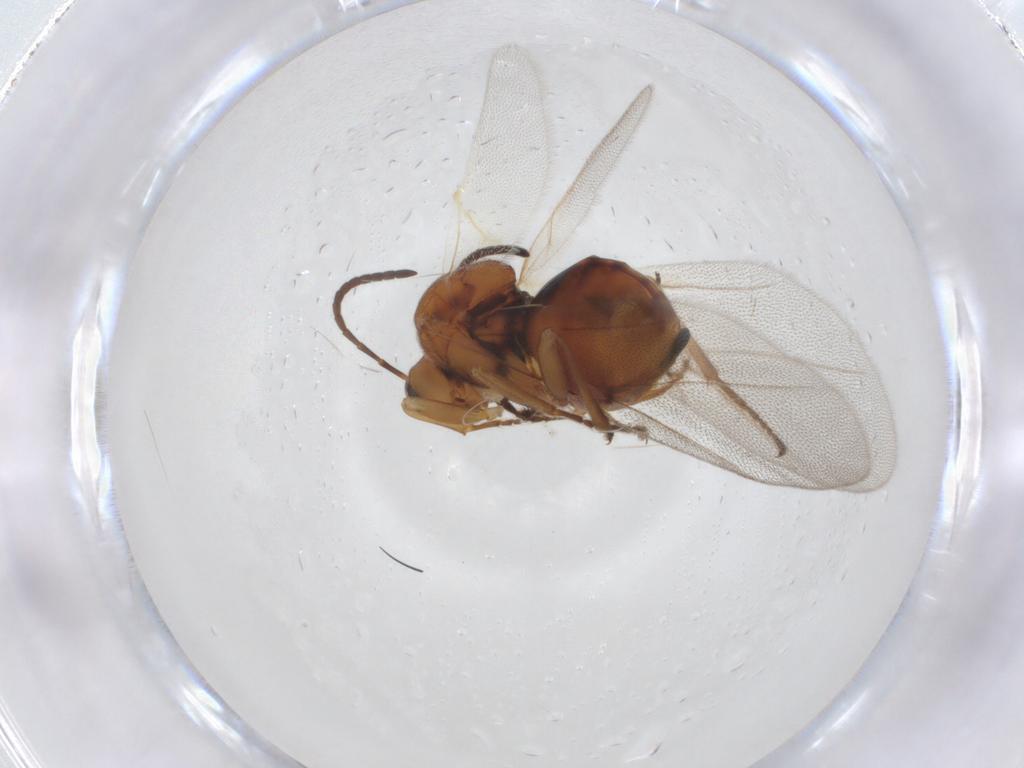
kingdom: Animalia
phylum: Arthropoda
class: Insecta
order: Hymenoptera
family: Cynipidae
